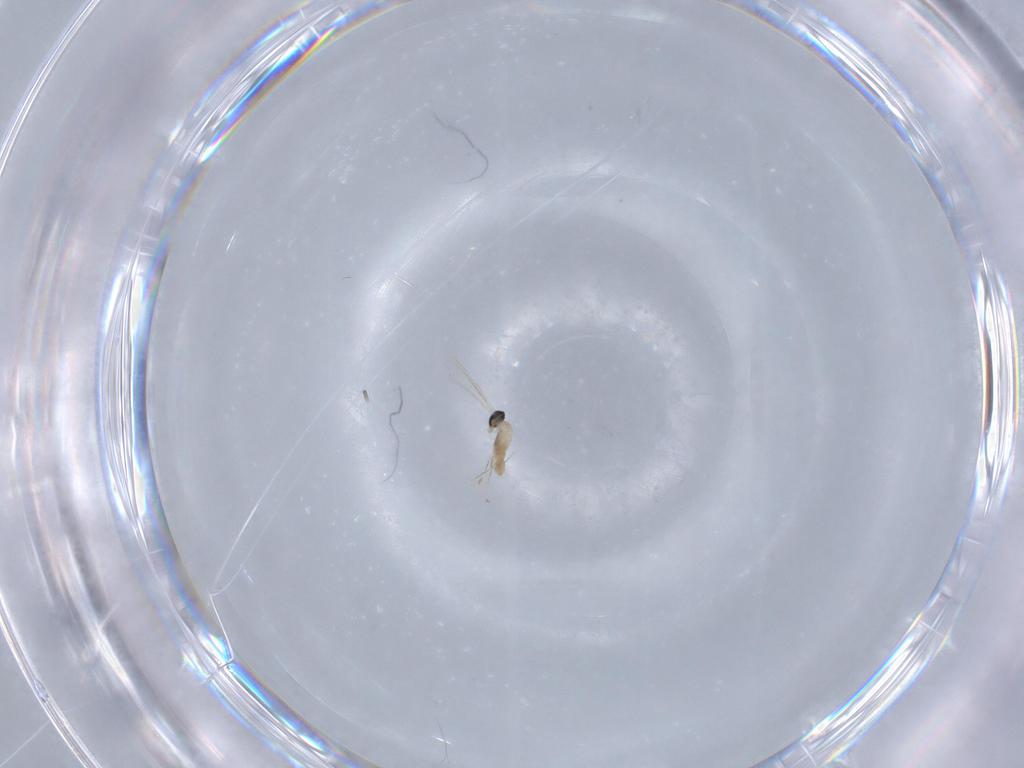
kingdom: Animalia
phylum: Arthropoda
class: Insecta
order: Diptera
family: Cecidomyiidae
